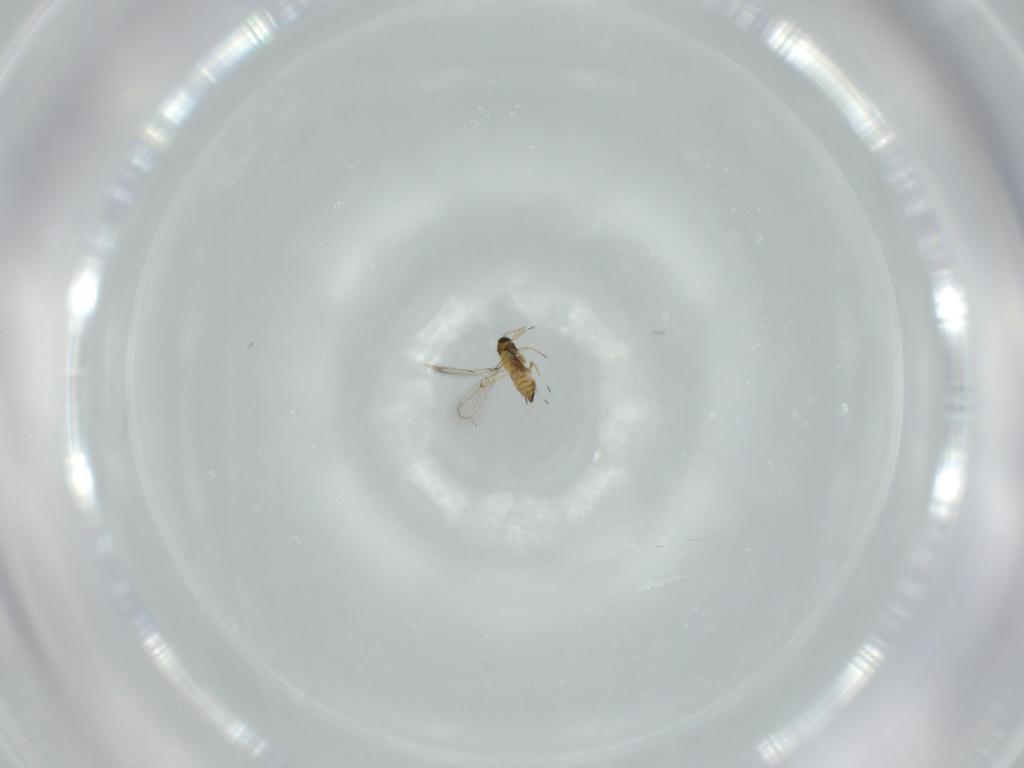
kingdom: Animalia
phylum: Arthropoda
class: Insecta
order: Hymenoptera
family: Trichogrammatidae
